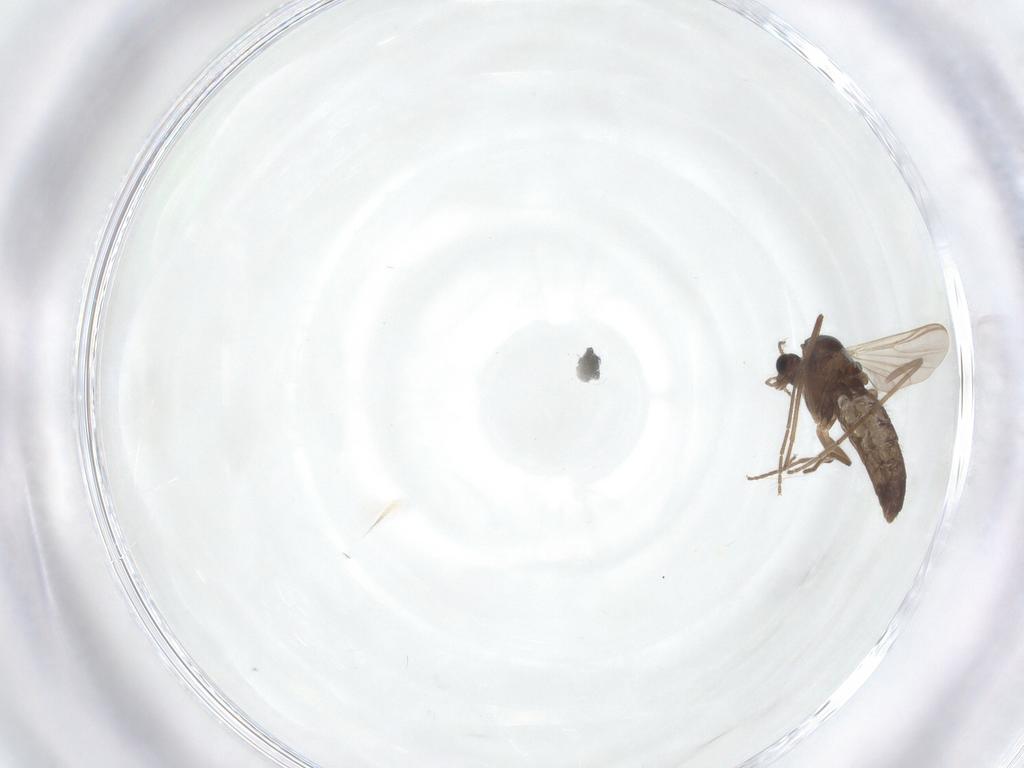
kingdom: Animalia
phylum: Arthropoda
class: Insecta
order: Diptera
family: Chironomidae
